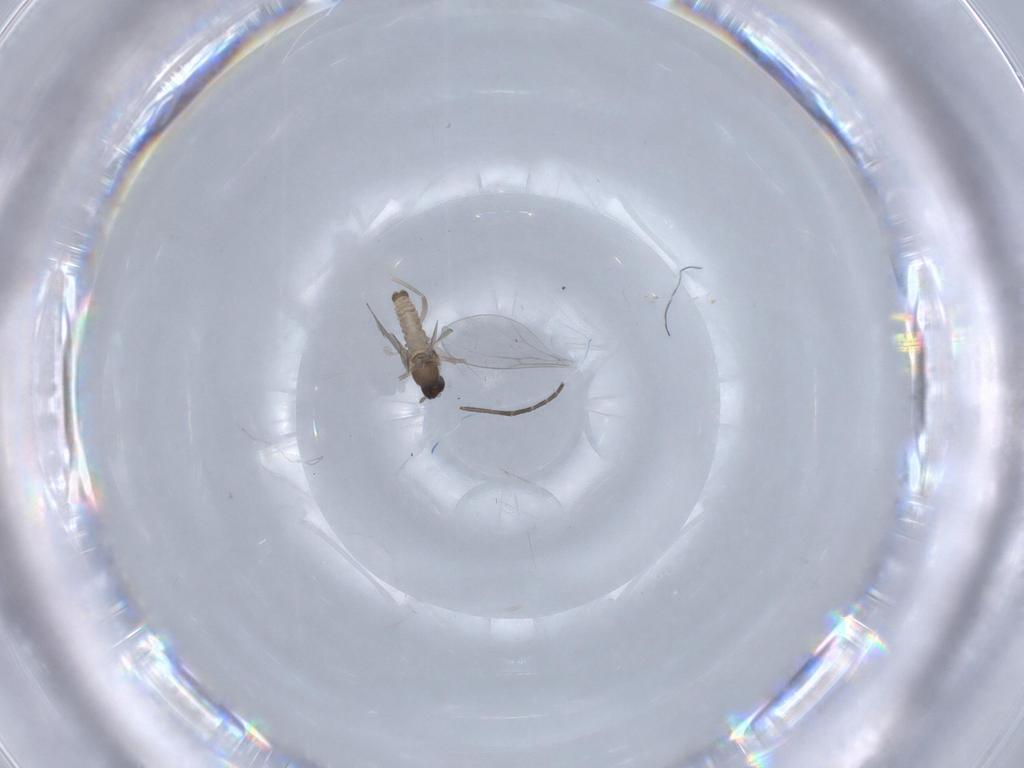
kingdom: Animalia
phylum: Arthropoda
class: Insecta
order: Diptera
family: Cecidomyiidae
